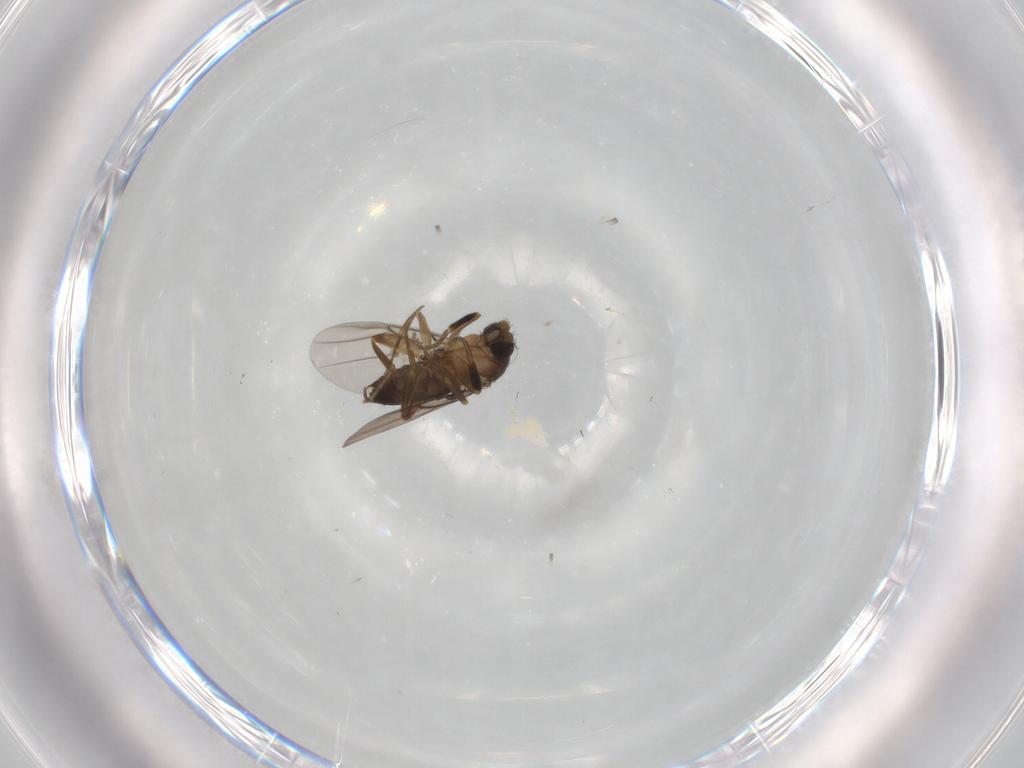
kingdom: Animalia
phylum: Arthropoda
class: Insecta
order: Diptera
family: Phoridae
